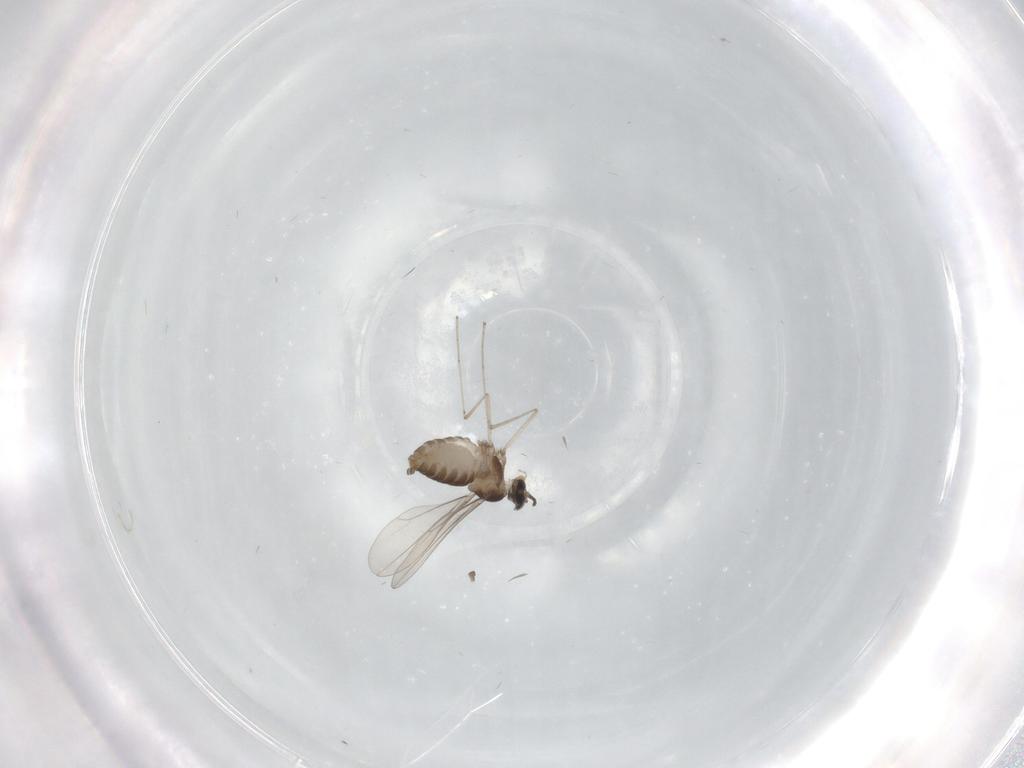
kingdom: Animalia
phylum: Arthropoda
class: Insecta
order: Diptera
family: Cecidomyiidae
